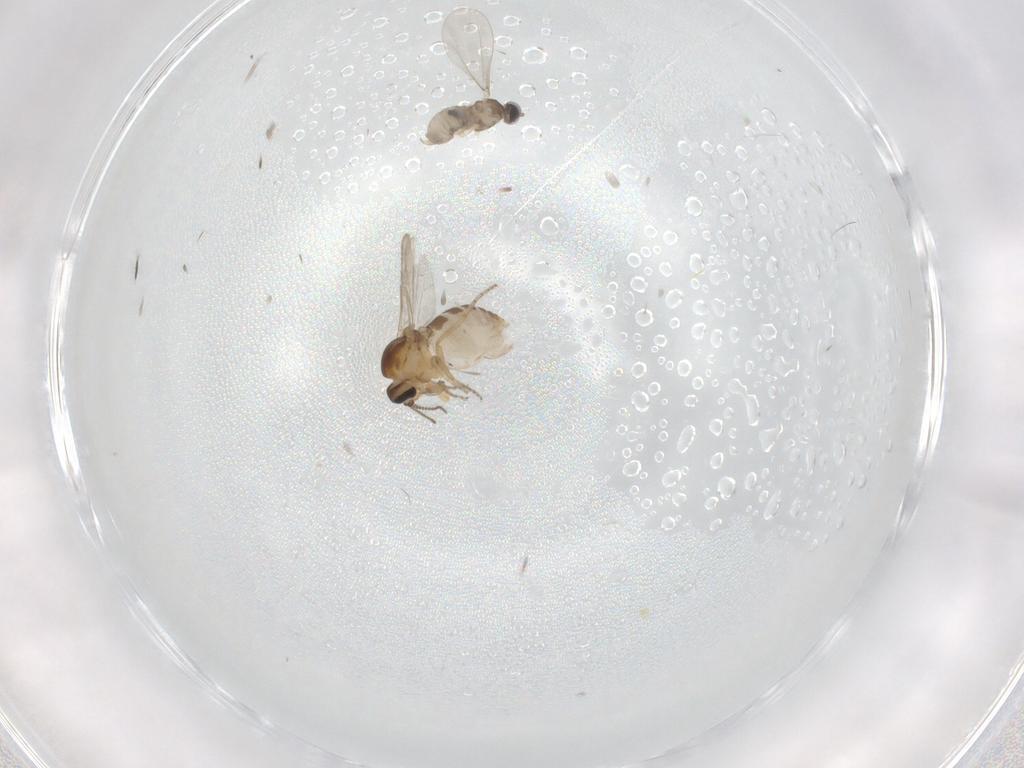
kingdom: Animalia
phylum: Arthropoda
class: Insecta
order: Diptera
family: Ceratopogonidae
